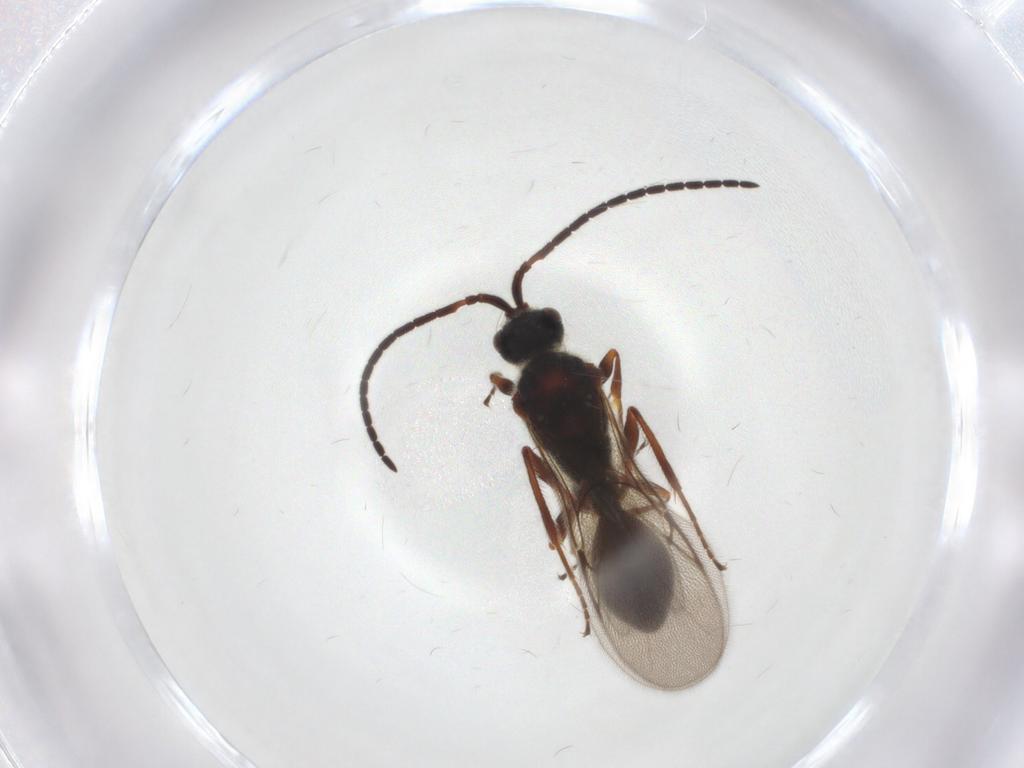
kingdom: Animalia
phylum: Arthropoda
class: Insecta
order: Hymenoptera
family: Diapriidae
